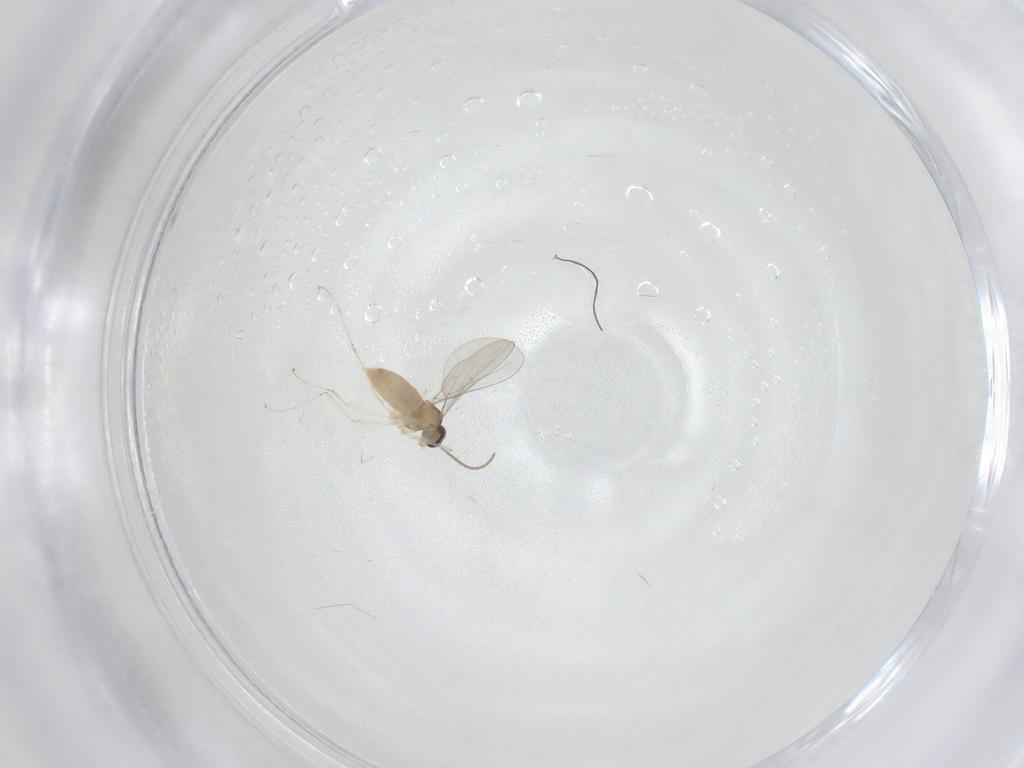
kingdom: Animalia
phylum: Arthropoda
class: Insecta
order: Diptera
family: Cecidomyiidae
